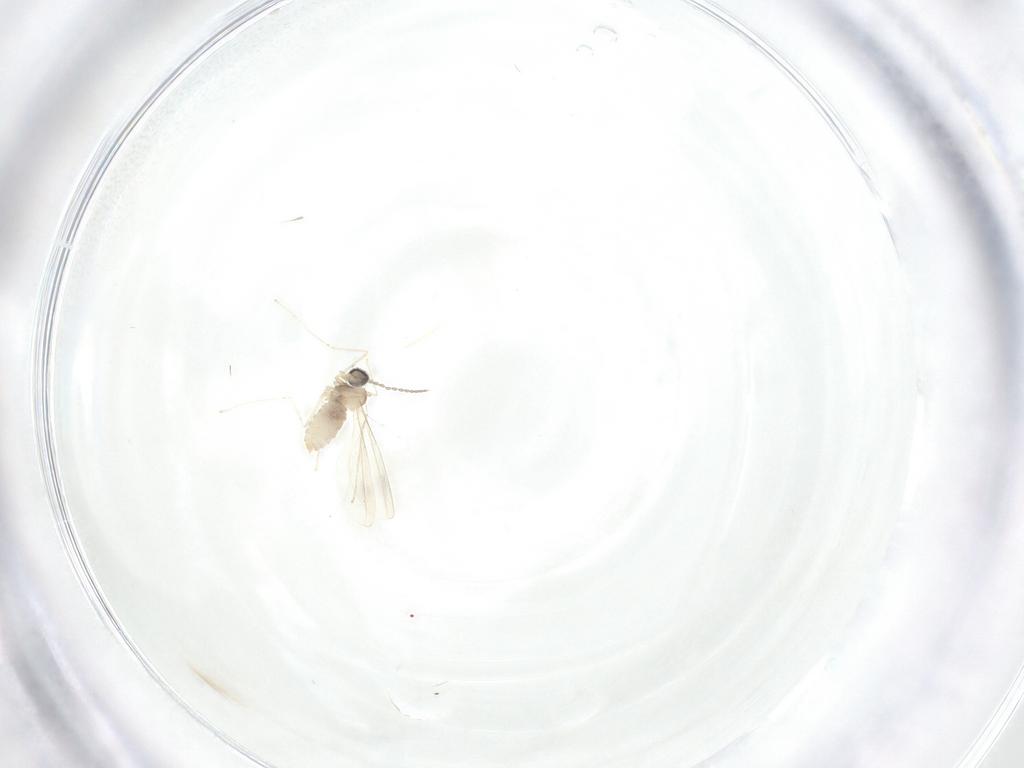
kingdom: Animalia
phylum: Arthropoda
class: Insecta
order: Diptera
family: Cecidomyiidae
